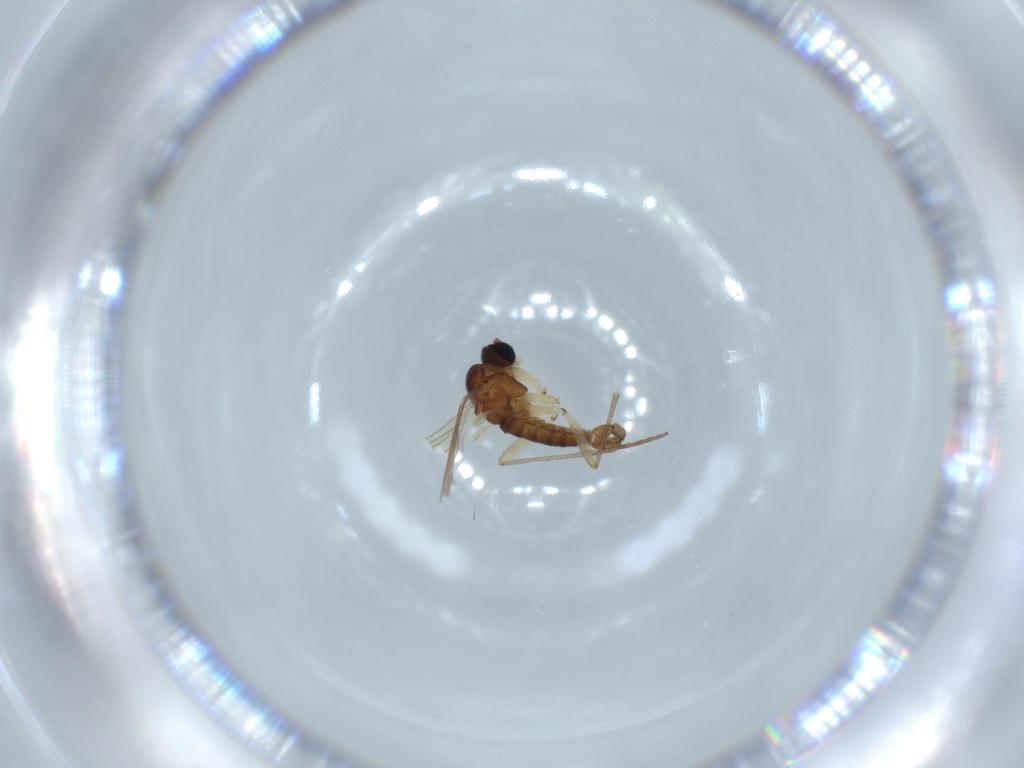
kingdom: Animalia
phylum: Arthropoda
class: Insecta
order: Diptera
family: Sciaridae
